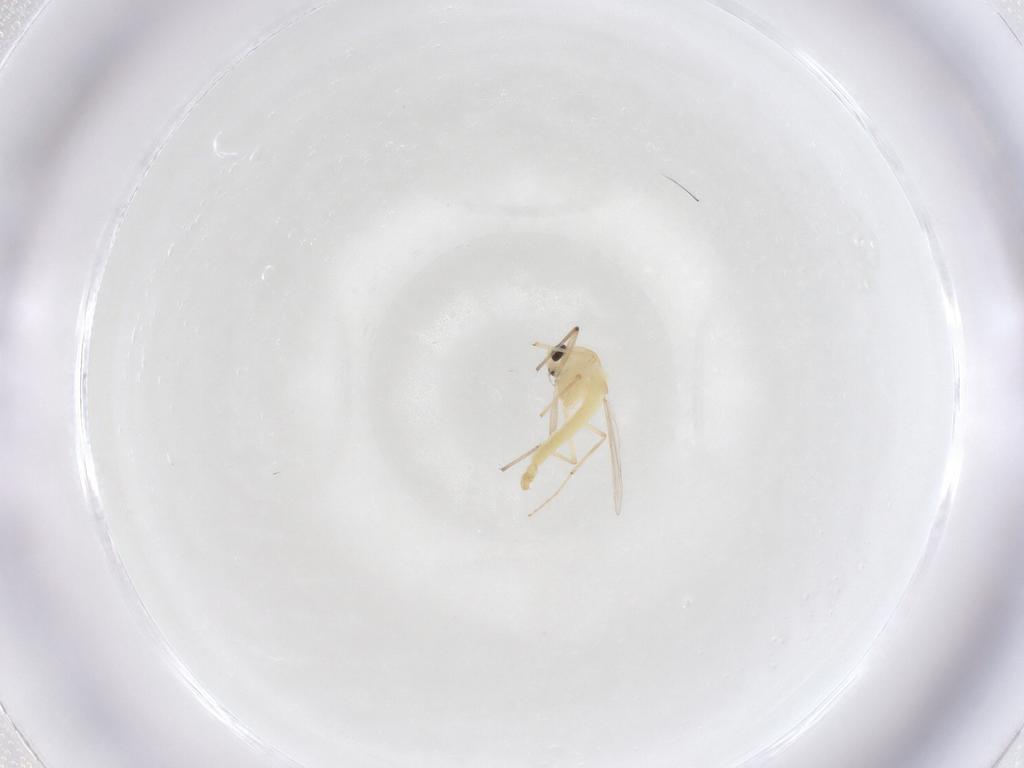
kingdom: Animalia
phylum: Arthropoda
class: Insecta
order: Diptera
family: Chironomidae
